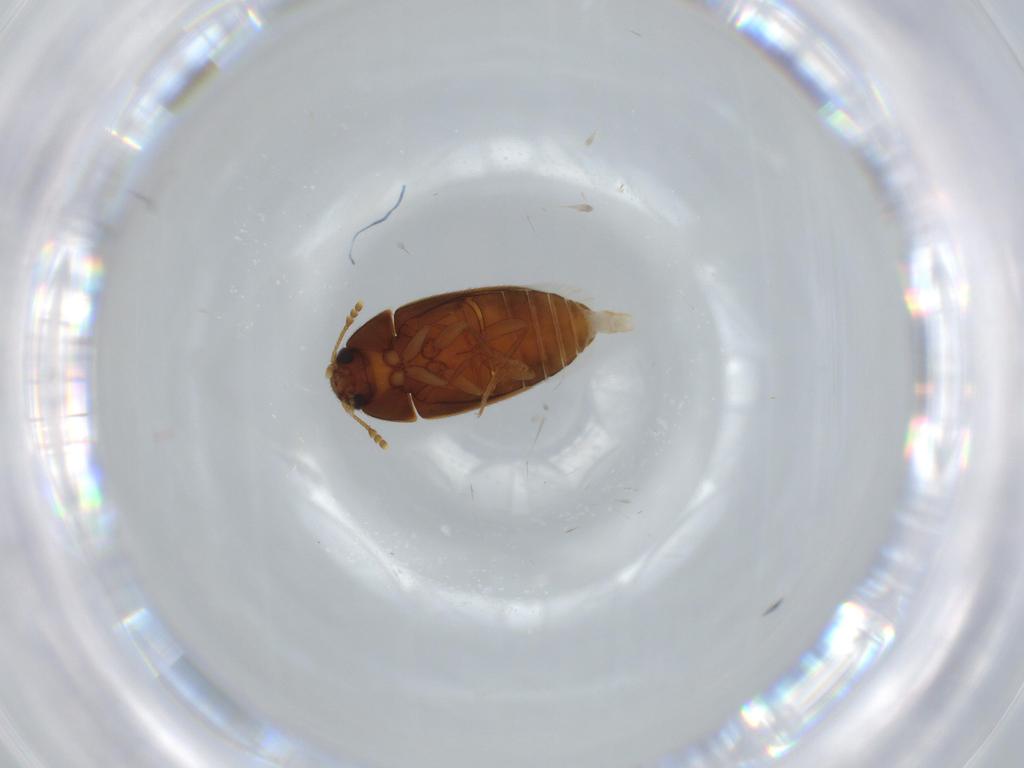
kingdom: Animalia
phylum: Arthropoda
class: Insecta
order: Coleoptera
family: Mycetophagidae
